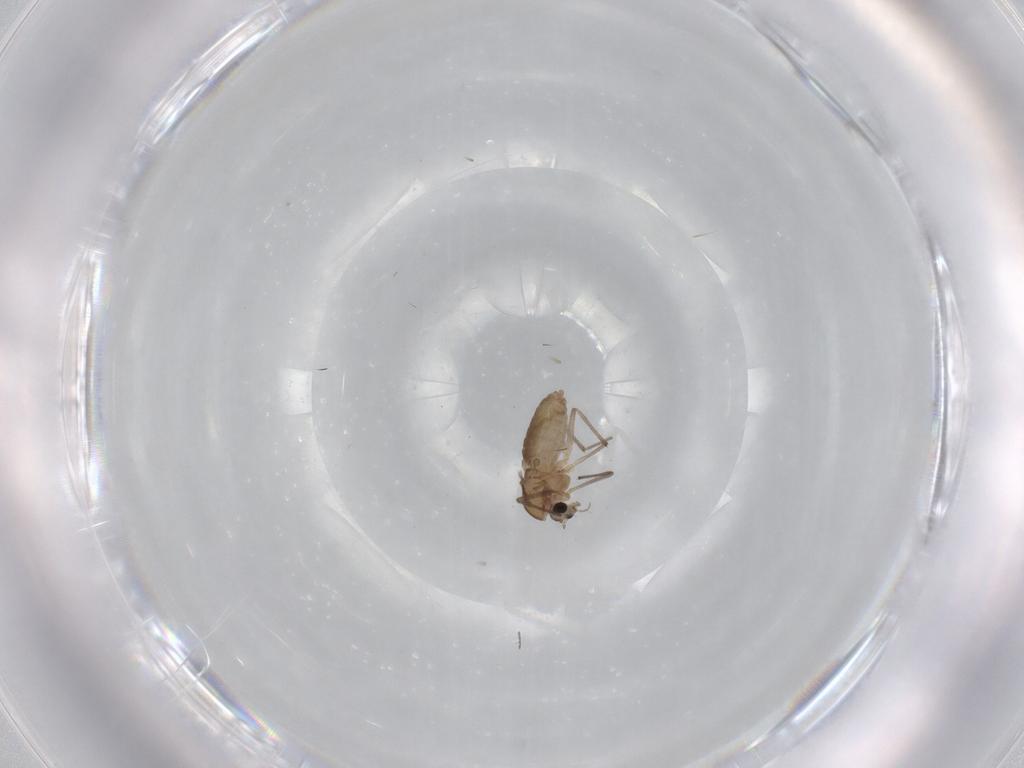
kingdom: Animalia
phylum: Arthropoda
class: Insecta
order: Diptera
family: Chironomidae
